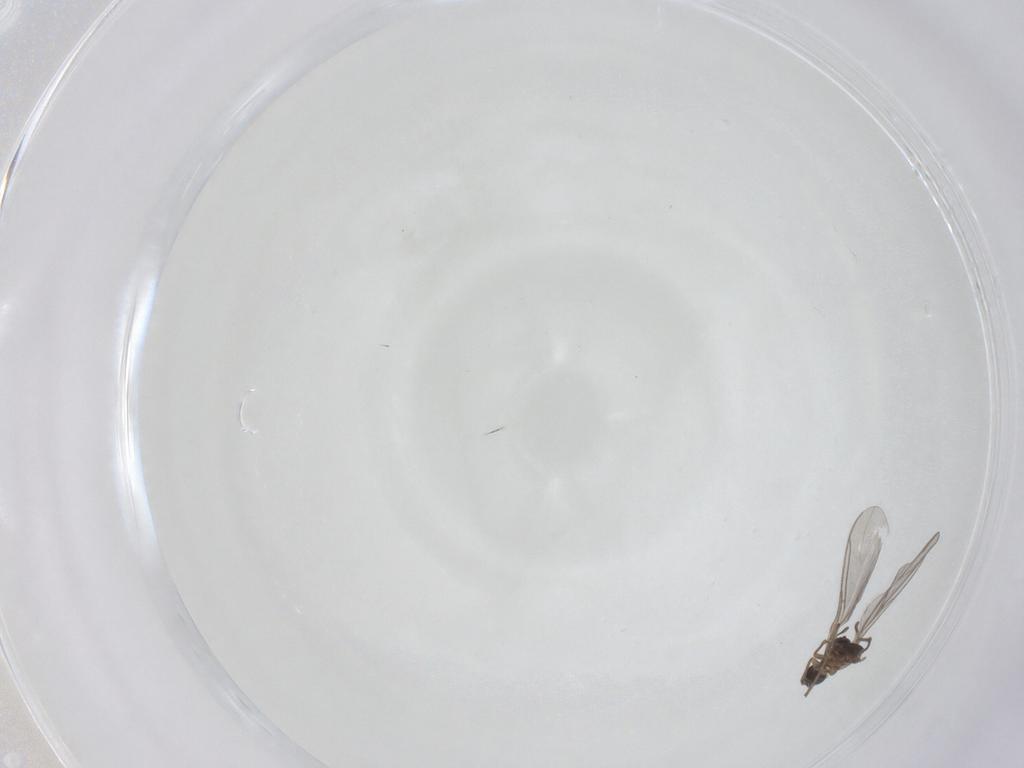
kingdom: Animalia
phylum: Arthropoda
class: Insecta
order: Diptera
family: Sciaridae
